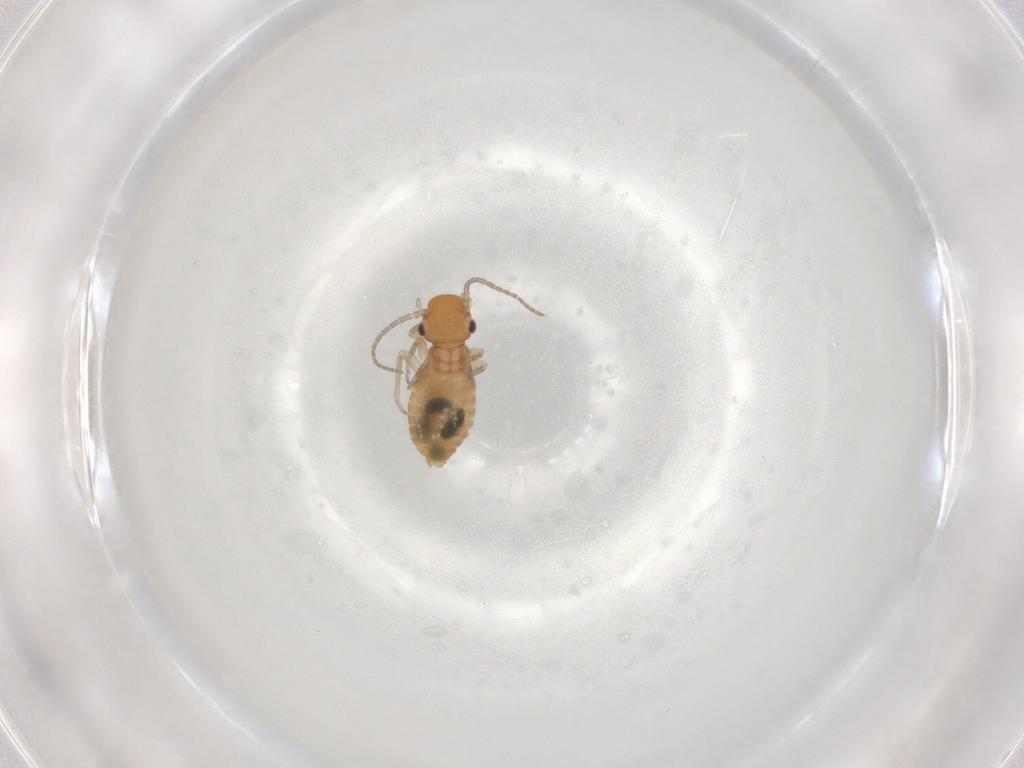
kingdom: Animalia
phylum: Arthropoda
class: Insecta
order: Psocodea
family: Caeciliusidae
